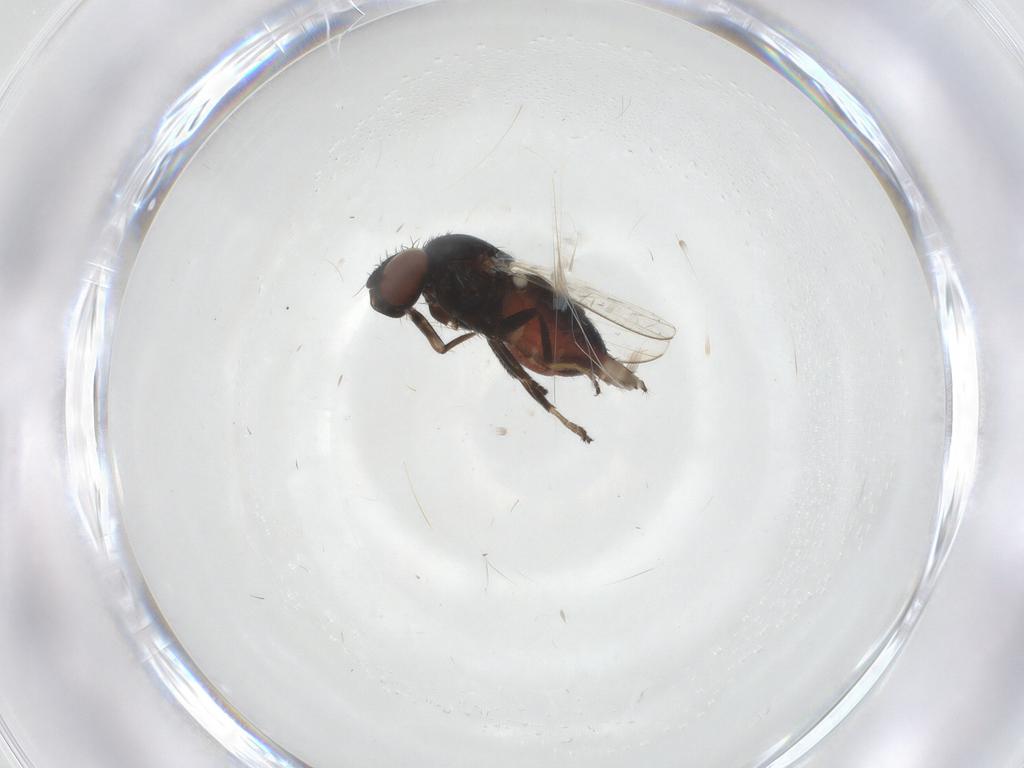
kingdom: Animalia
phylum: Arthropoda
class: Insecta
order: Diptera
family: Milichiidae
